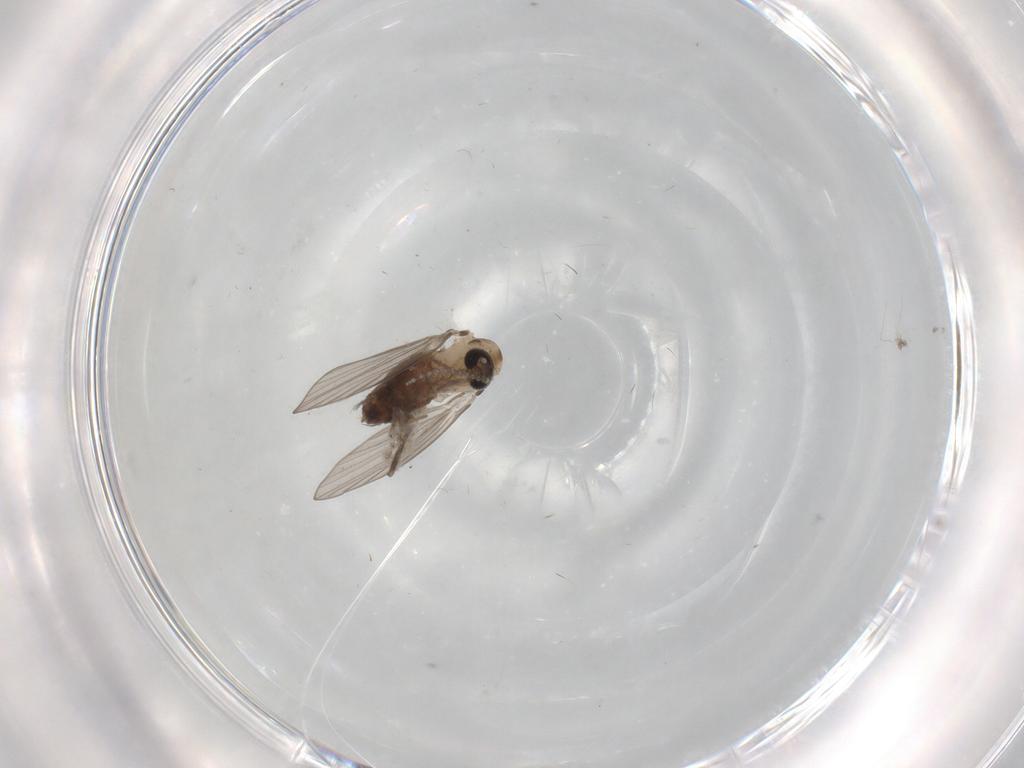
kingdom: Animalia
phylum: Arthropoda
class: Insecta
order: Diptera
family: Psychodidae
